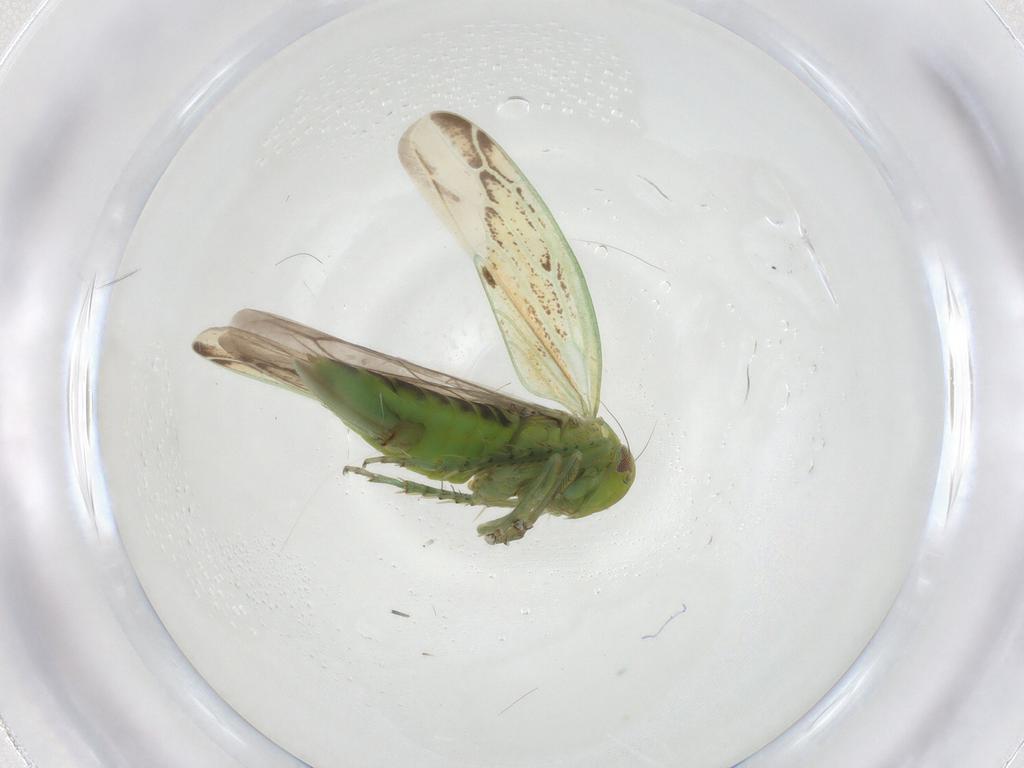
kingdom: Animalia
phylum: Arthropoda
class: Insecta
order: Hemiptera
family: Cicadellidae
